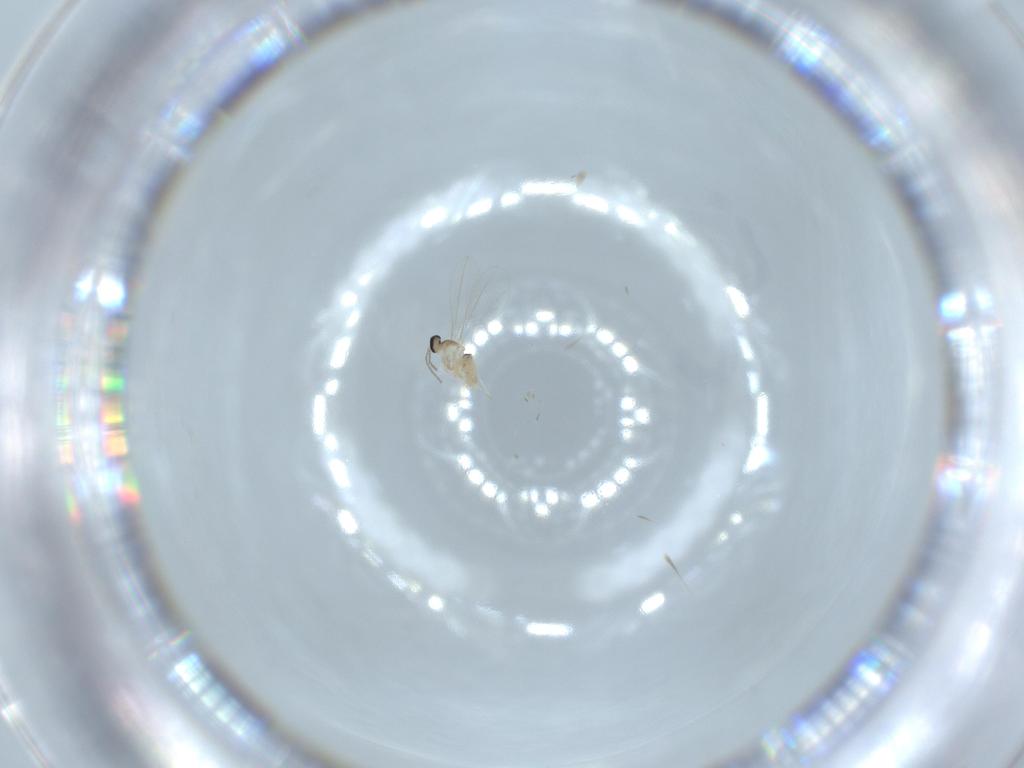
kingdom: Animalia
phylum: Arthropoda
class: Insecta
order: Diptera
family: Cecidomyiidae
